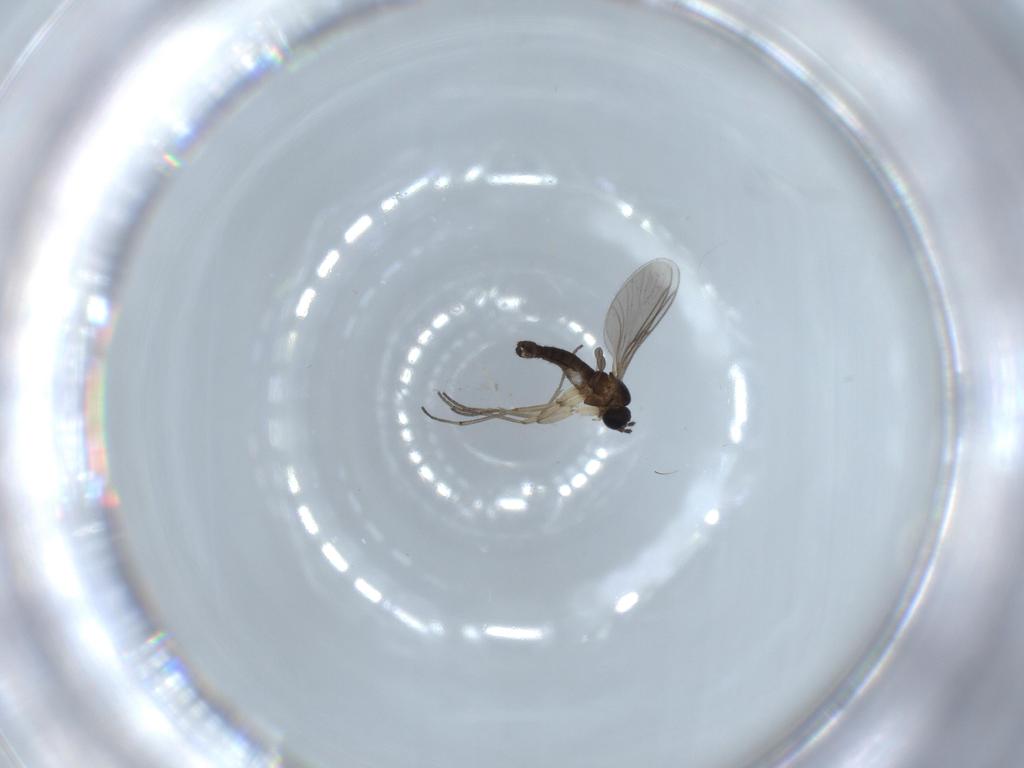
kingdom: Animalia
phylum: Arthropoda
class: Insecta
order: Diptera
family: Sciaridae
